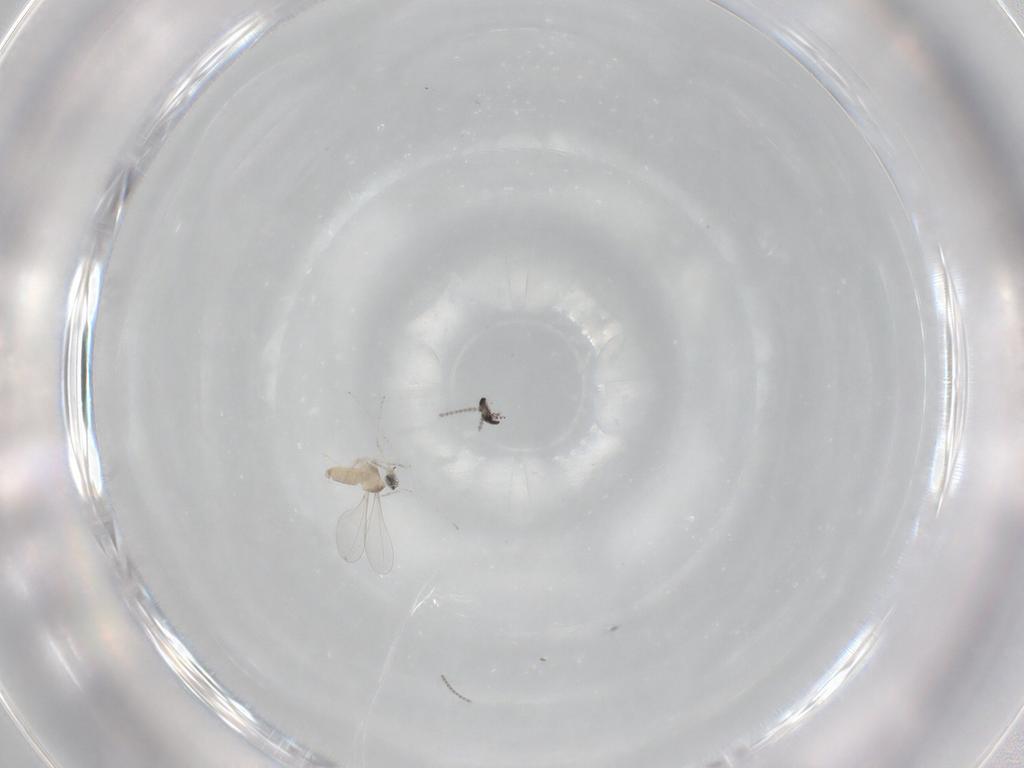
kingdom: Animalia
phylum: Arthropoda
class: Insecta
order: Diptera
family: Cecidomyiidae
